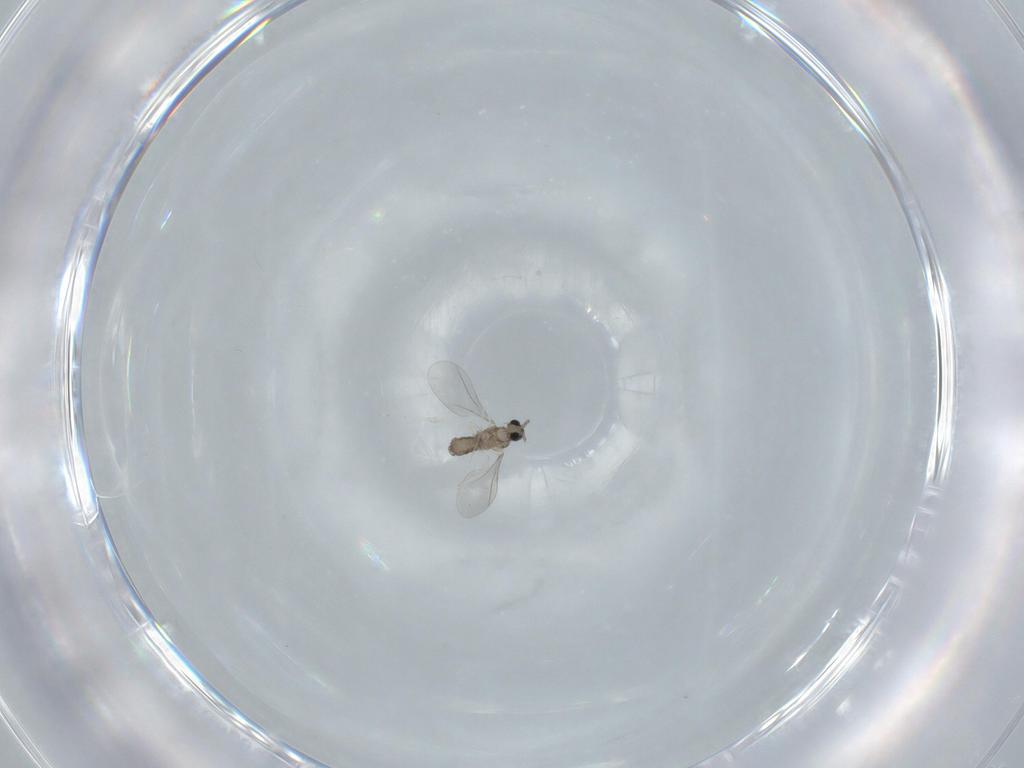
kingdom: Animalia
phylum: Arthropoda
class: Insecta
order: Diptera
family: Cecidomyiidae
